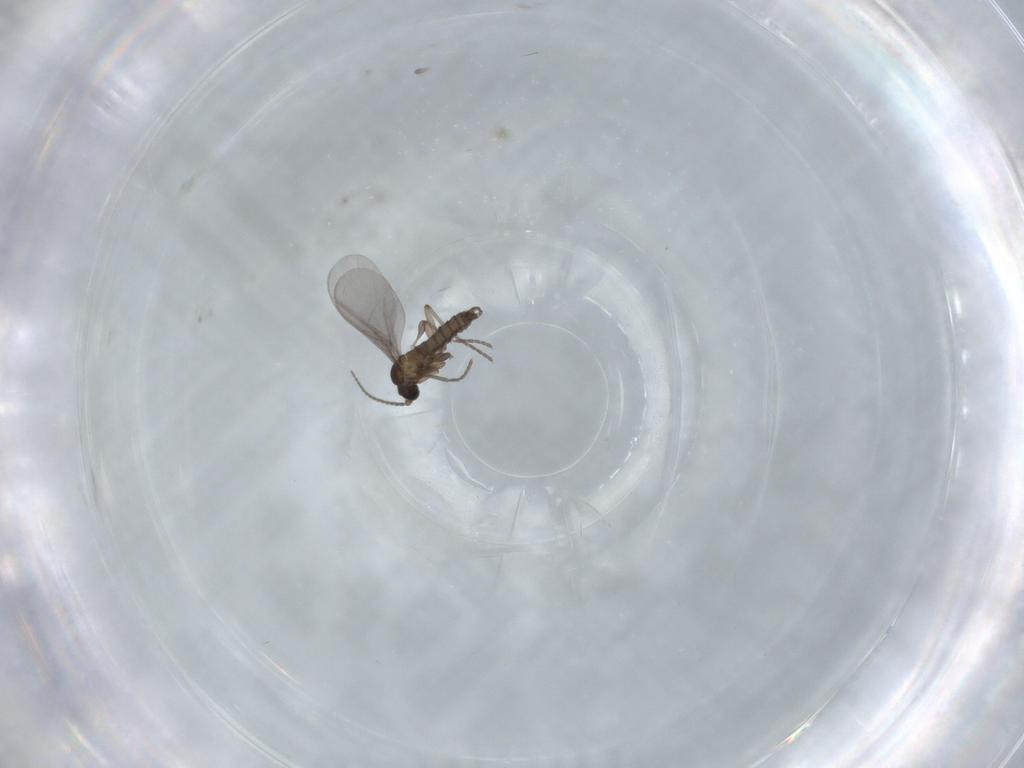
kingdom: Animalia
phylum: Arthropoda
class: Insecta
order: Diptera
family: Sciaridae
